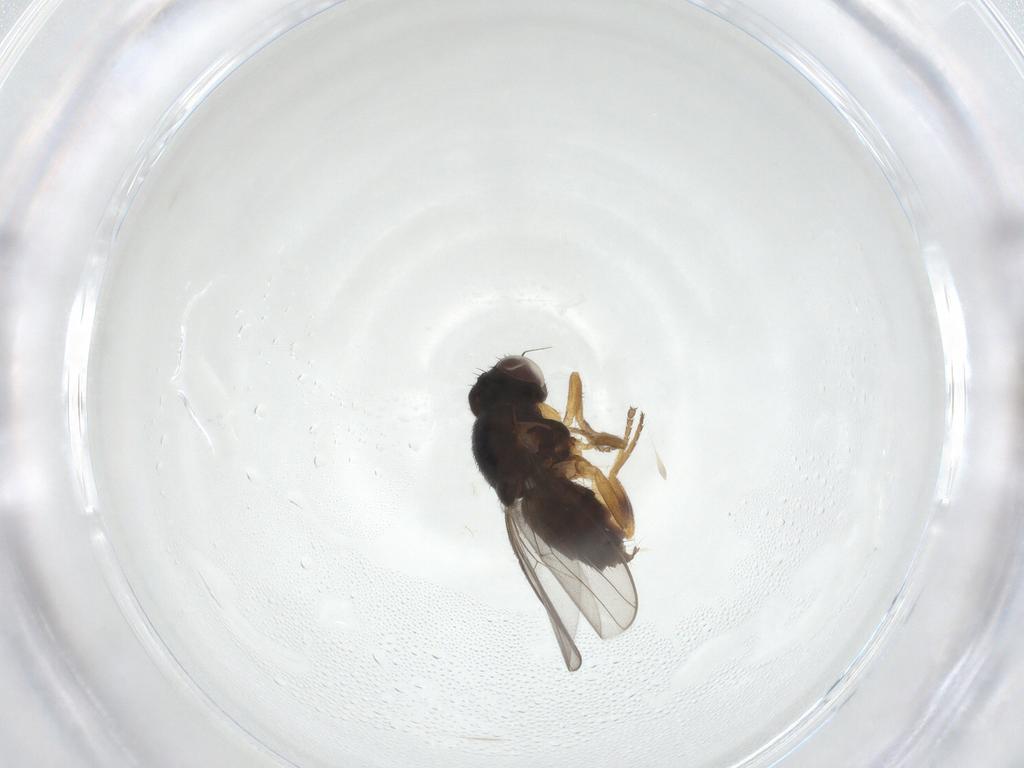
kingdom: Animalia
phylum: Arthropoda
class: Insecta
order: Diptera
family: Chloropidae
